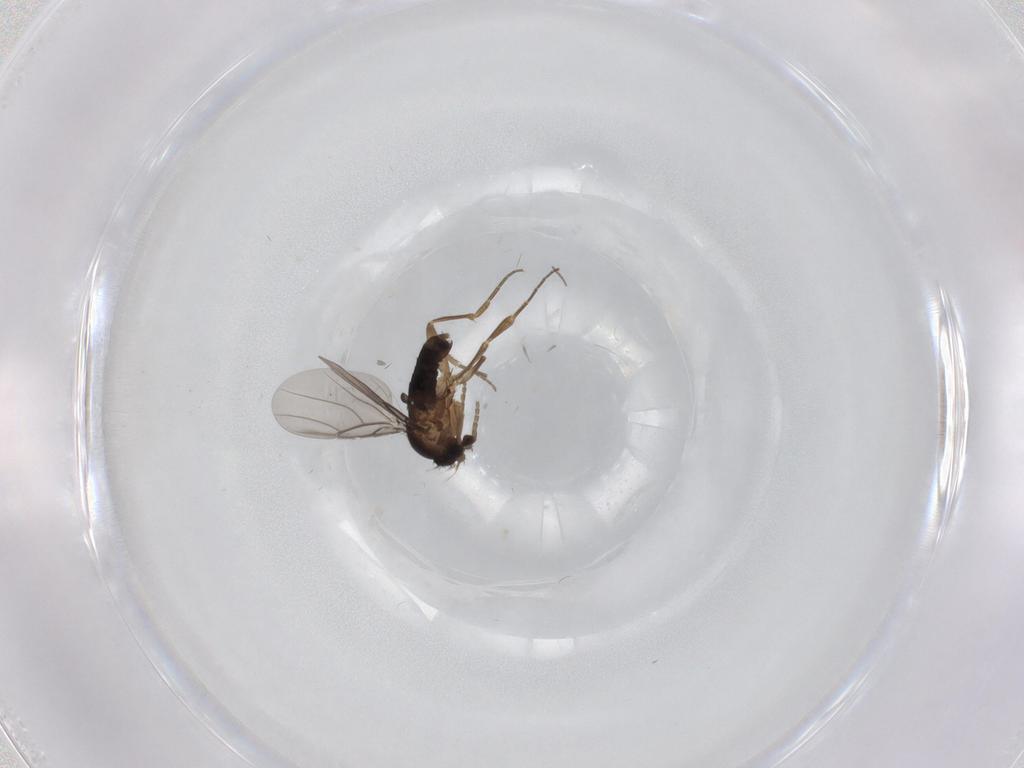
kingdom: Animalia
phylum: Arthropoda
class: Insecta
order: Diptera
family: Phoridae
